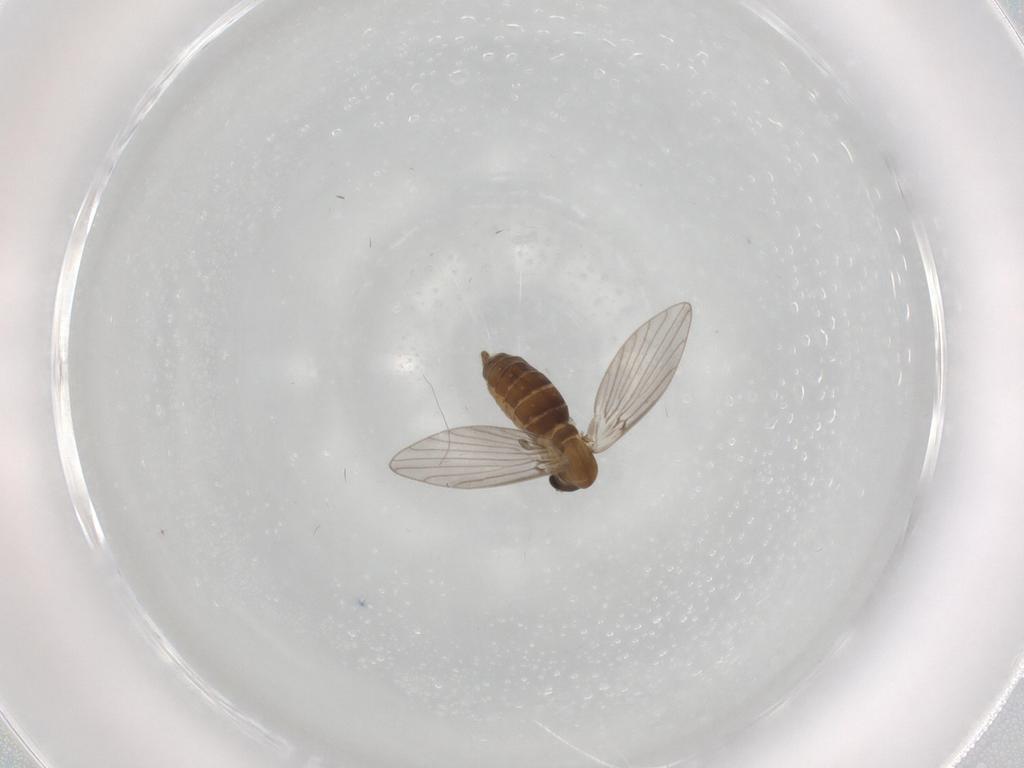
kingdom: Animalia
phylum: Arthropoda
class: Insecta
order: Diptera
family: Psychodidae
